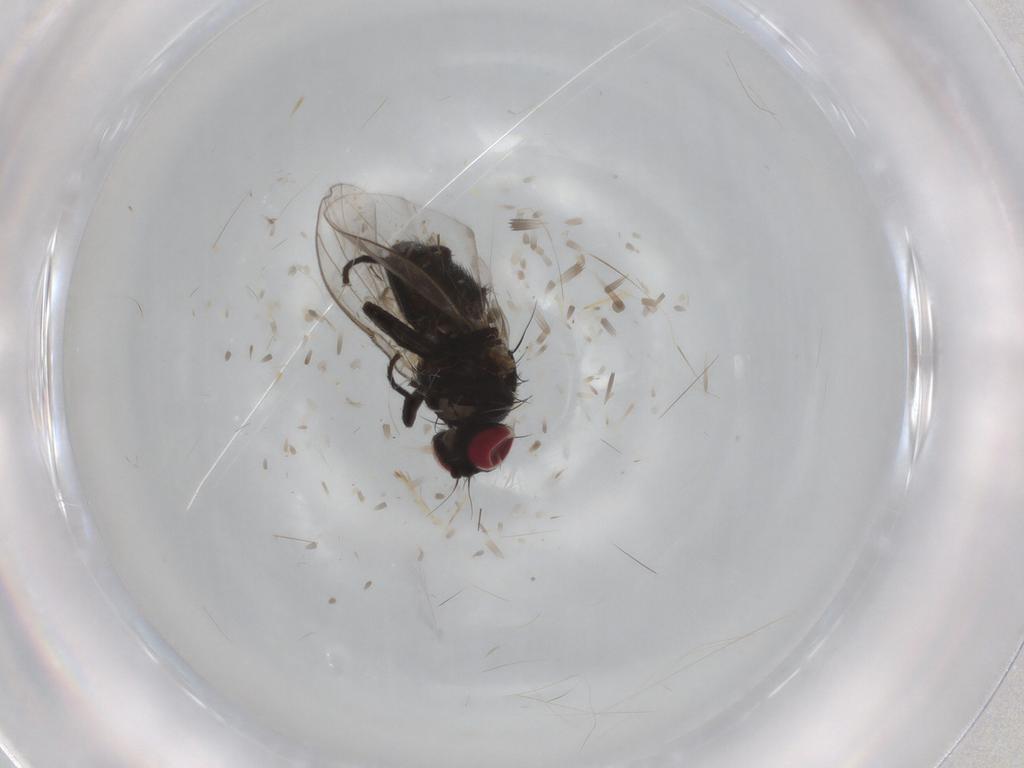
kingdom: Animalia
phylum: Arthropoda
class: Insecta
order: Diptera
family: Agromyzidae
